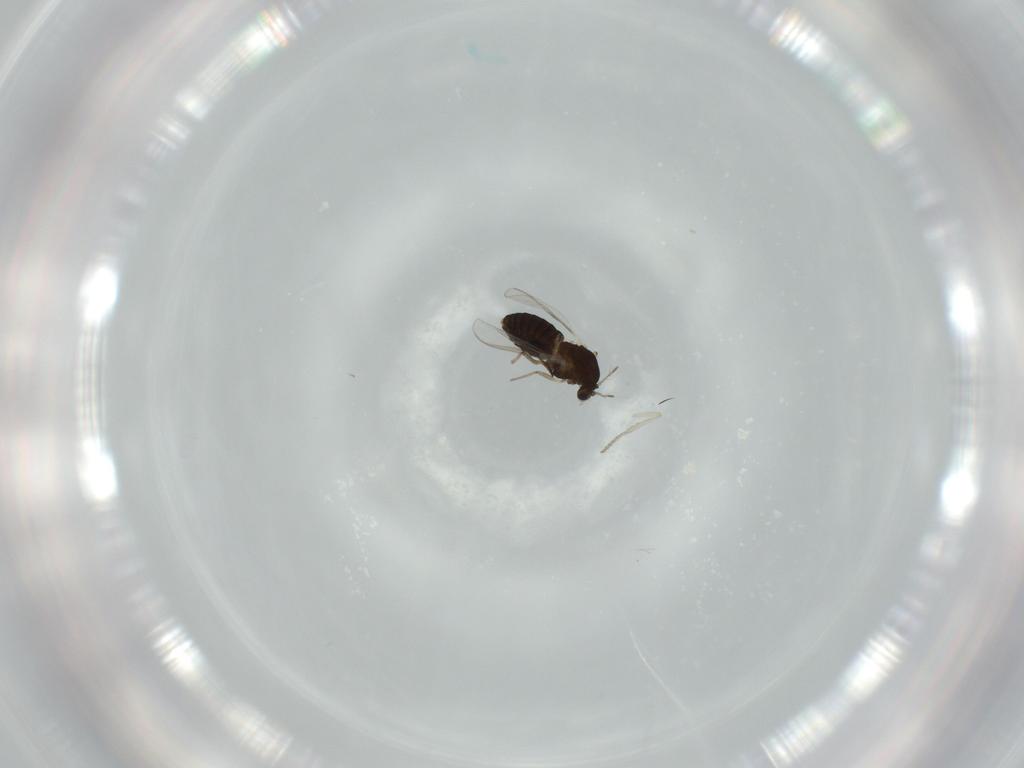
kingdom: Animalia
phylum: Arthropoda
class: Insecta
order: Diptera
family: Chironomidae
